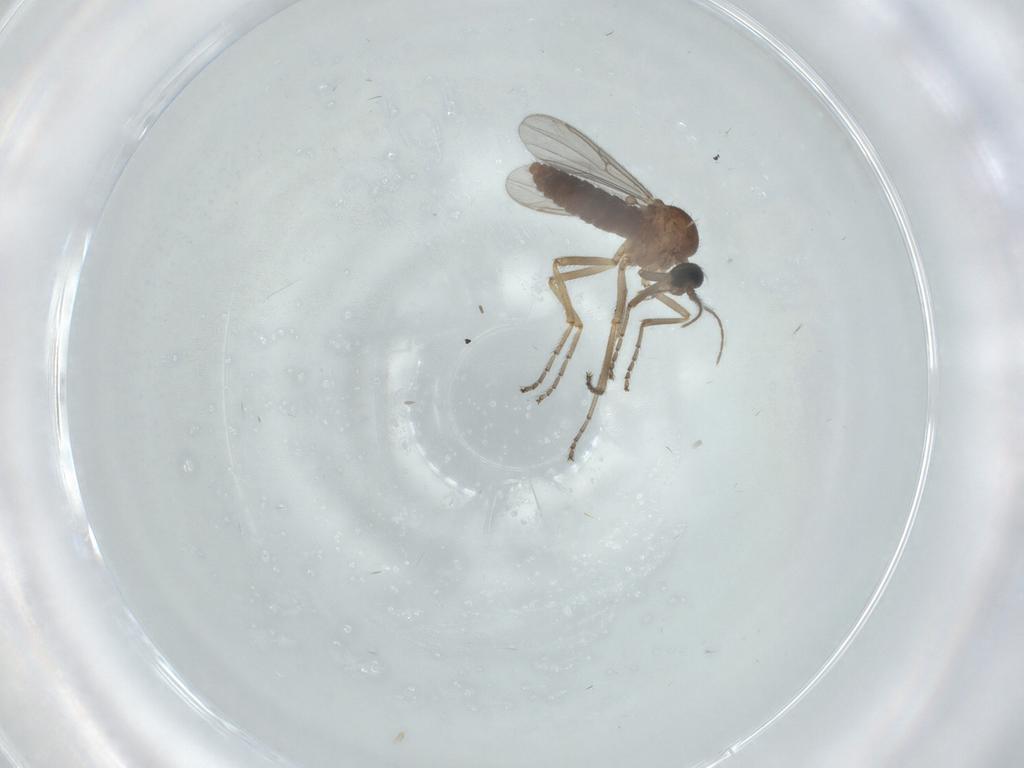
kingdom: Animalia
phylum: Arthropoda
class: Insecta
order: Diptera
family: Ceratopogonidae
